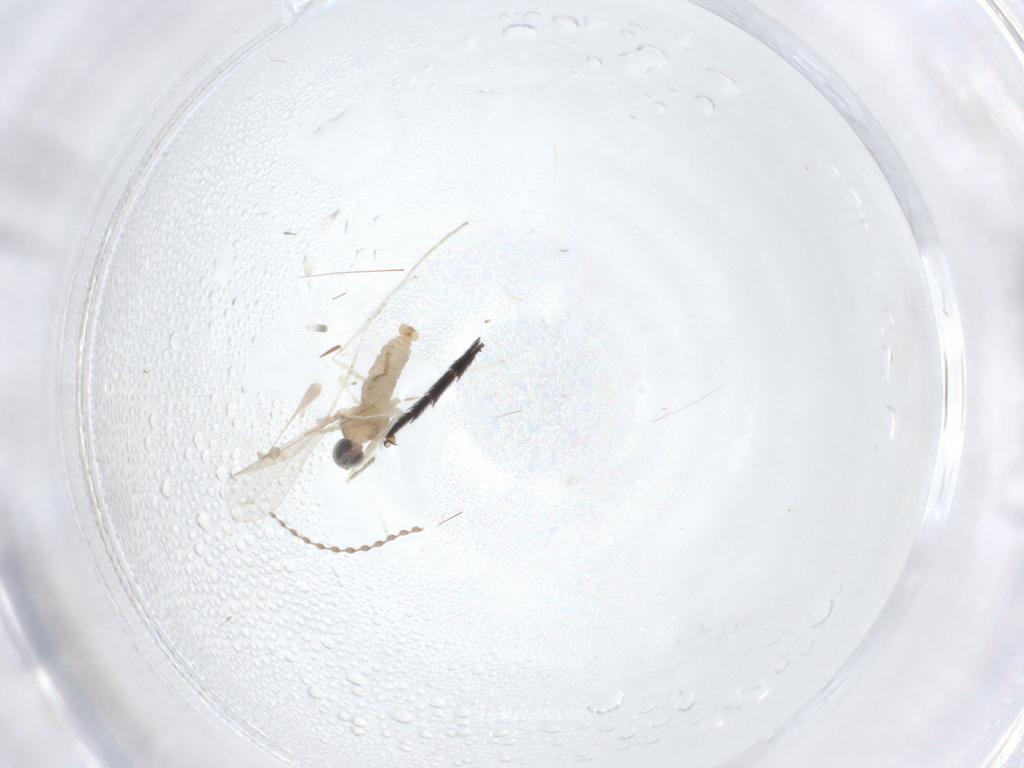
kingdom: Animalia
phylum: Arthropoda
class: Insecta
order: Diptera
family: Cecidomyiidae
